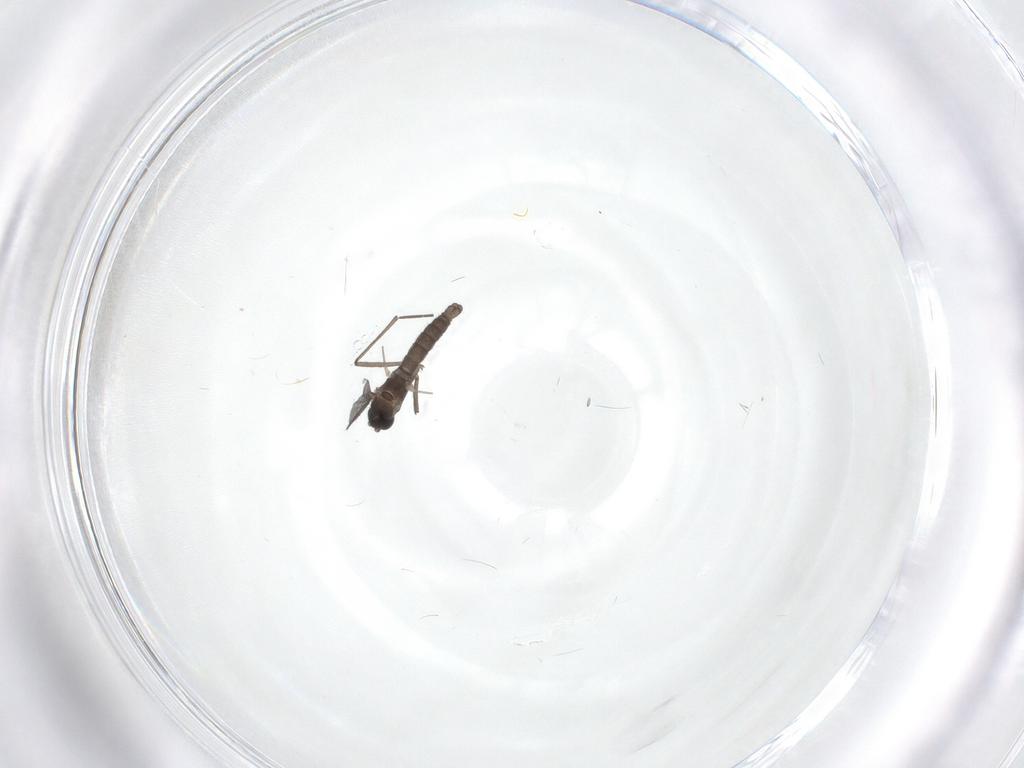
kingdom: Animalia
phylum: Arthropoda
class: Insecta
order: Diptera
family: Sciaridae
